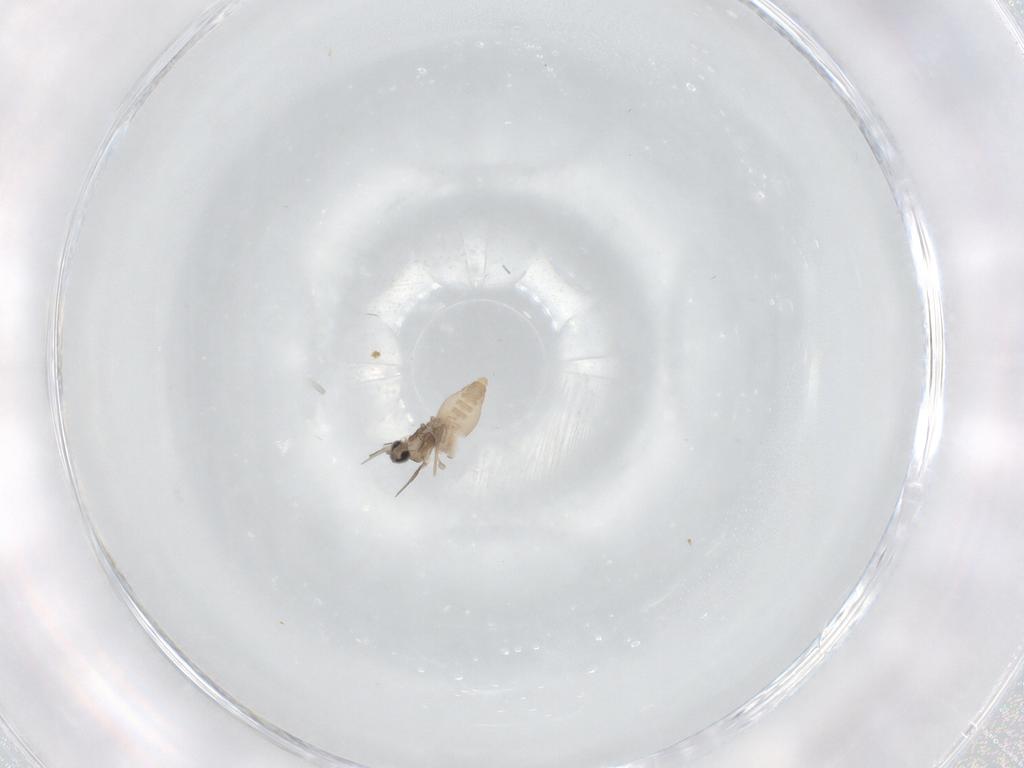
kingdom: Animalia
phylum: Arthropoda
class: Insecta
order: Diptera
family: Cecidomyiidae
